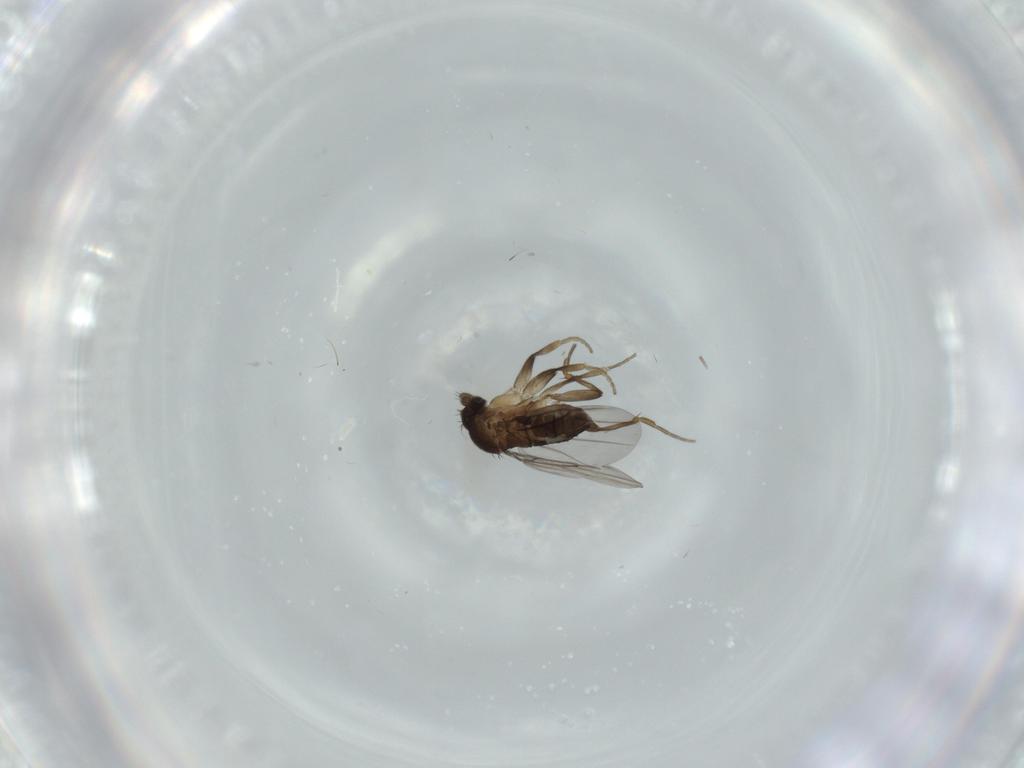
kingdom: Animalia
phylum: Arthropoda
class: Insecta
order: Diptera
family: Phoridae
